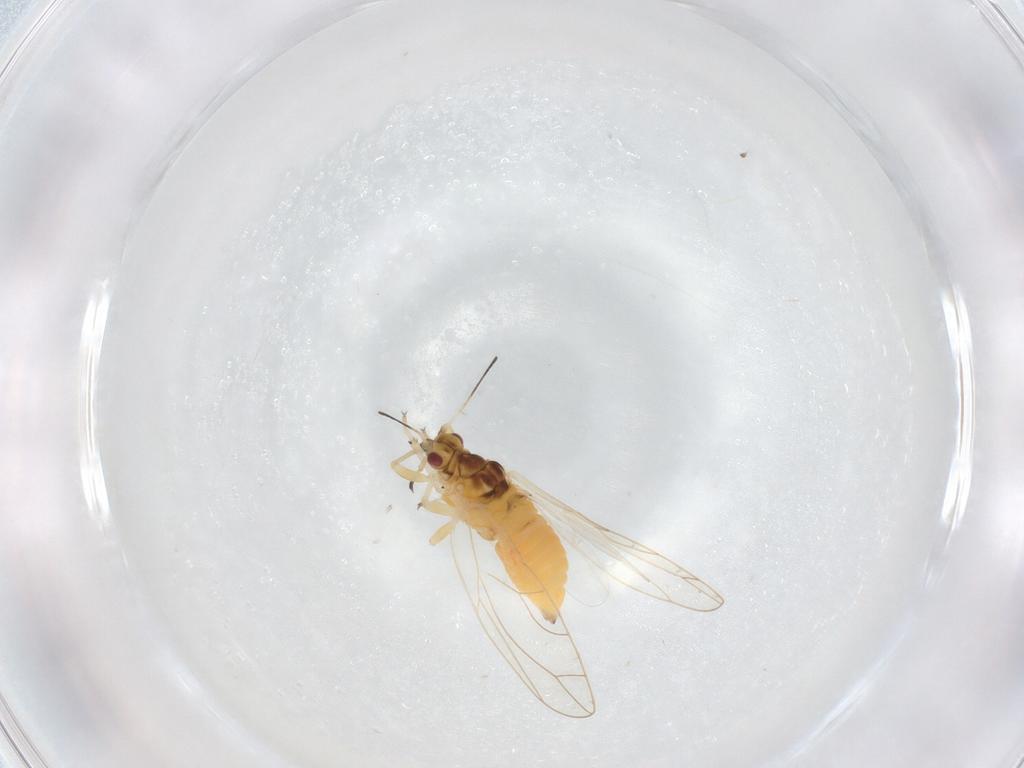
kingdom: Animalia
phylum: Arthropoda
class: Insecta
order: Hemiptera
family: Triozidae
